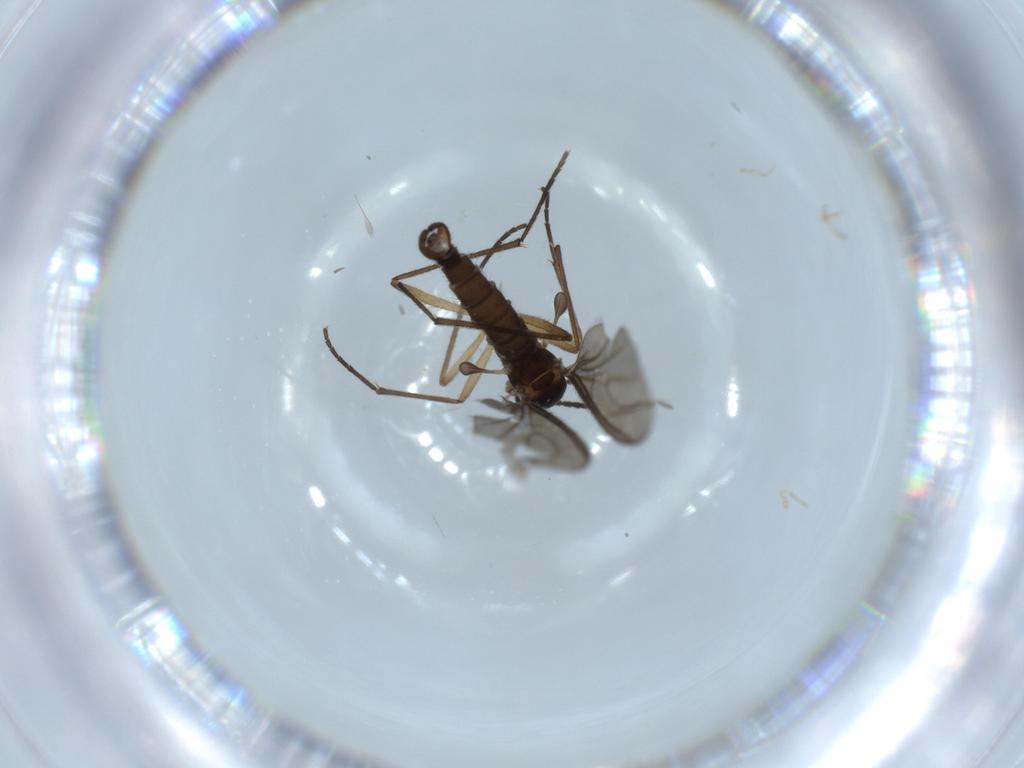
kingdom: Animalia
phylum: Arthropoda
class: Insecta
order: Diptera
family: Sciaridae
